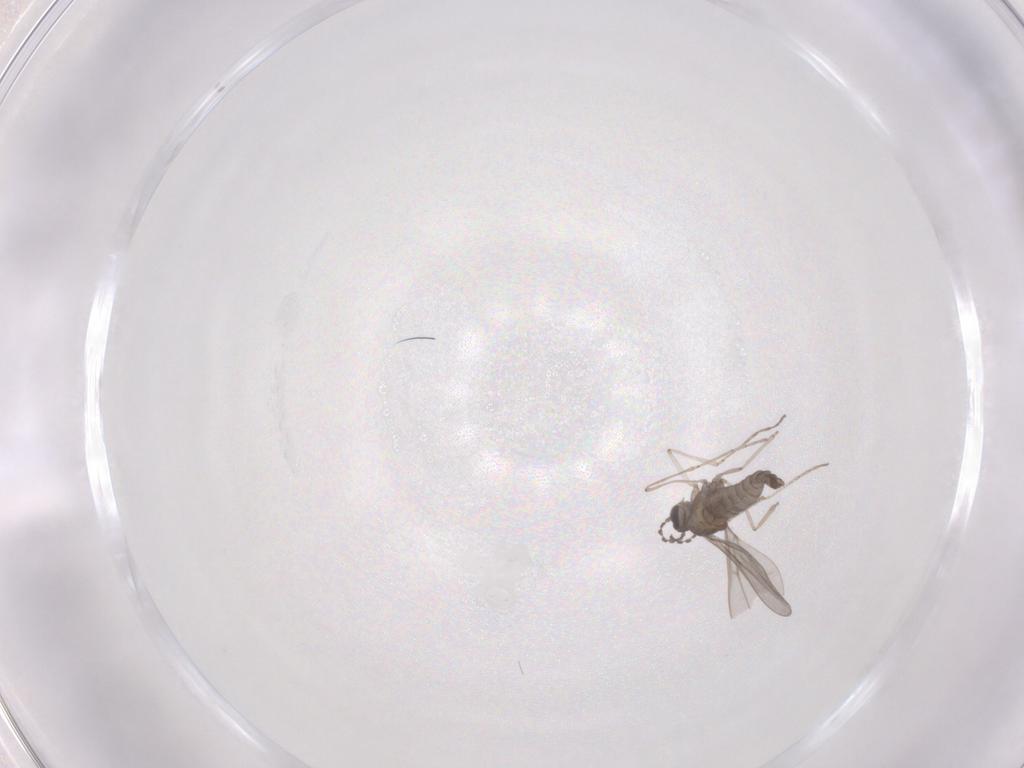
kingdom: Animalia
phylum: Arthropoda
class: Insecta
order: Diptera
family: Cecidomyiidae
